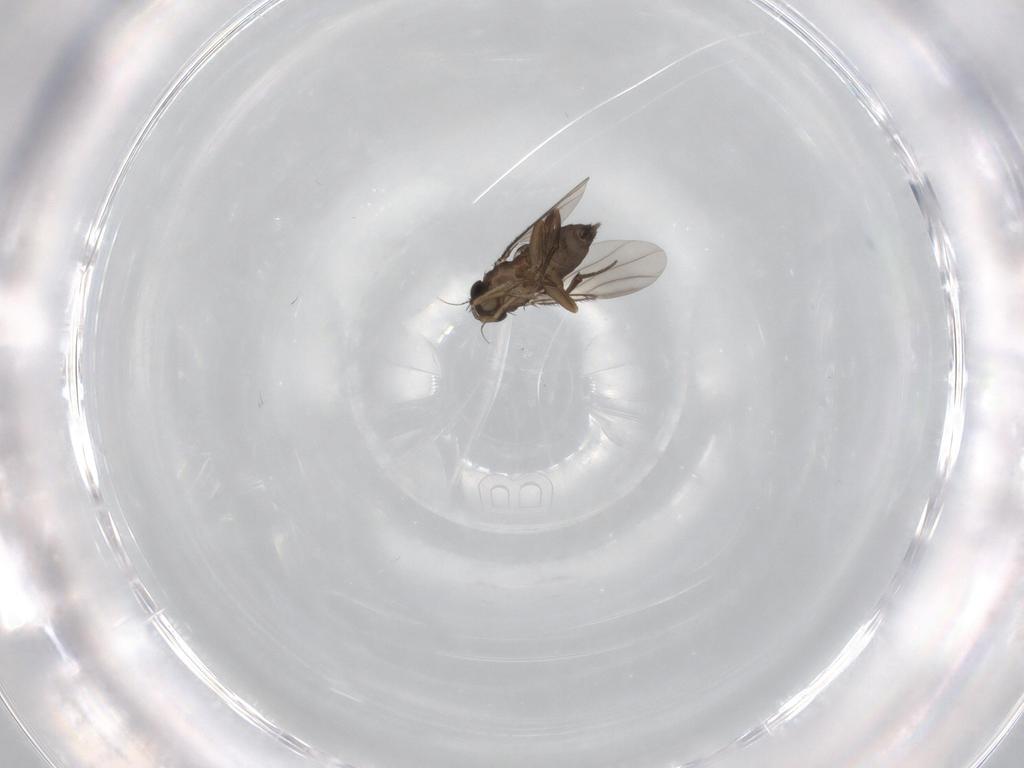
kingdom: Animalia
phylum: Arthropoda
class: Insecta
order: Diptera
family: Phoridae
